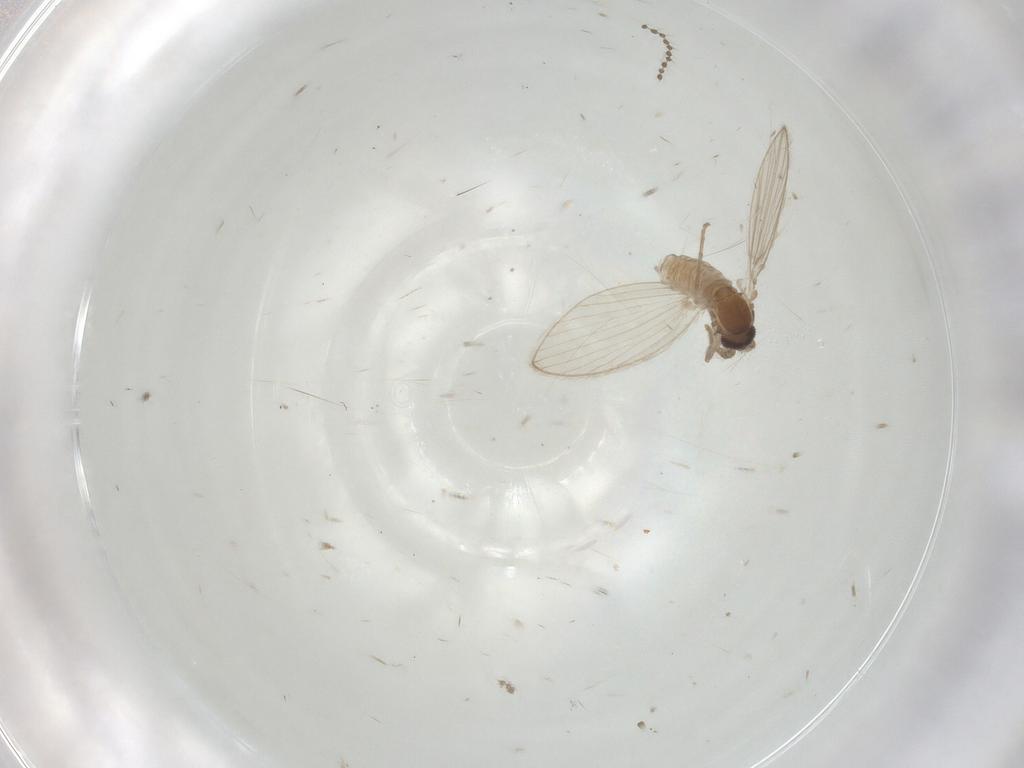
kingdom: Animalia
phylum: Arthropoda
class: Insecta
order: Diptera
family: Psychodidae
